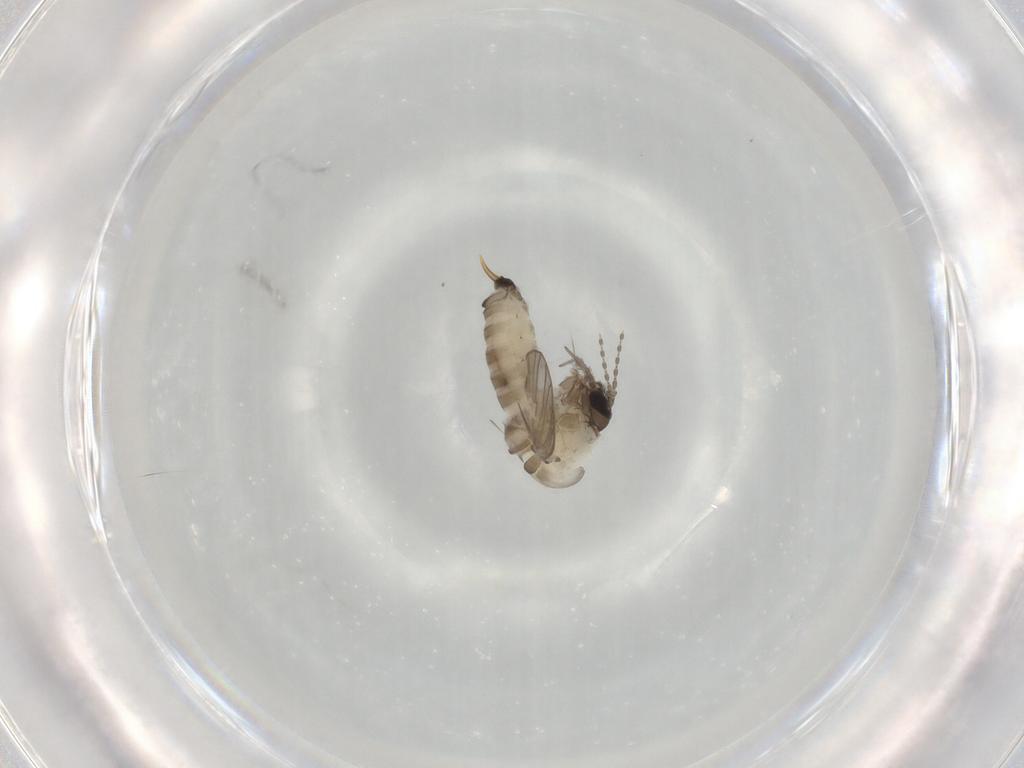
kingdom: Animalia
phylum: Arthropoda
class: Insecta
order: Diptera
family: Psychodidae
